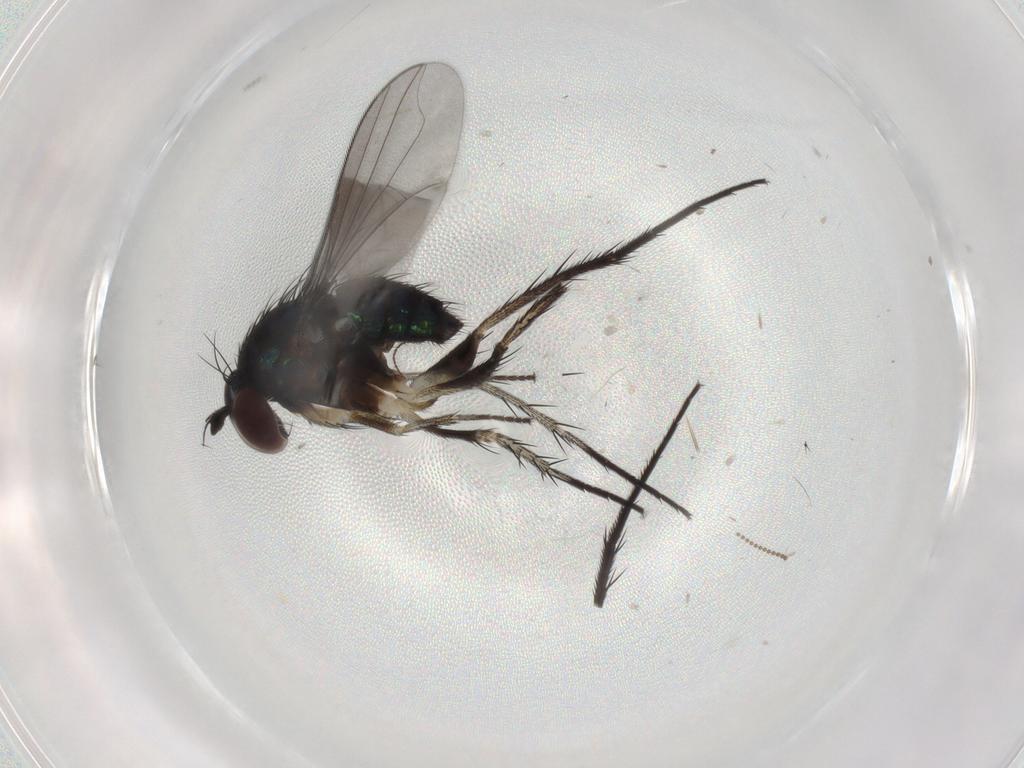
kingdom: Animalia
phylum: Arthropoda
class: Insecta
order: Diptera
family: Dolichopodidae
